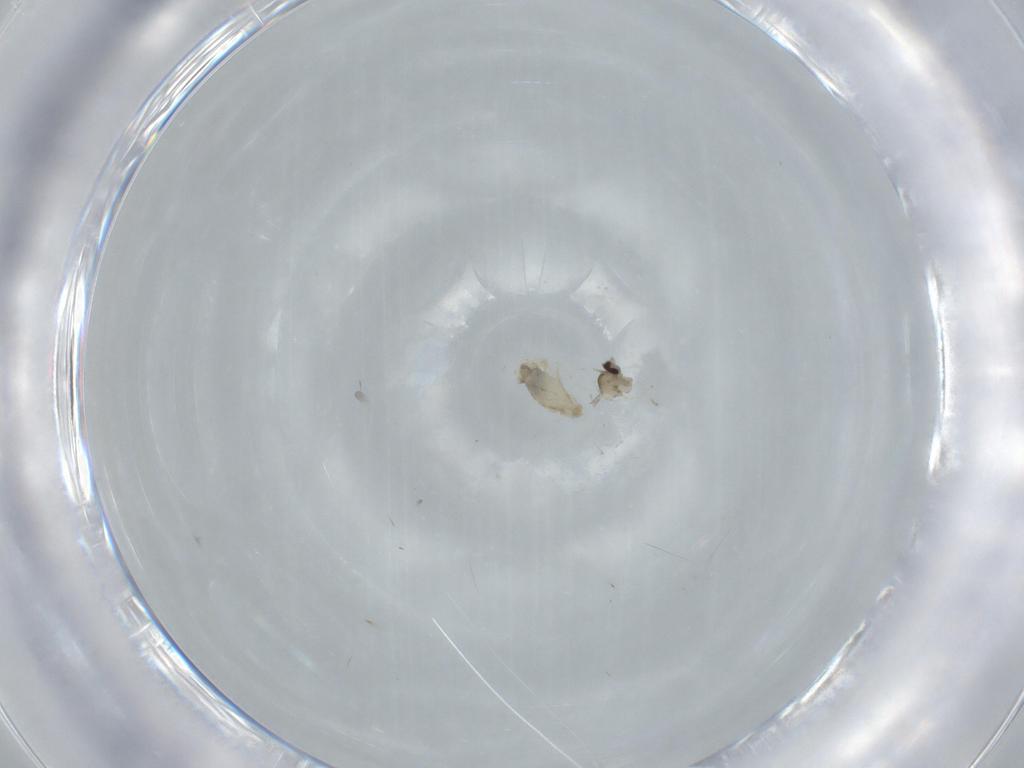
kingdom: Animalia
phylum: Arthropoda
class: Insecta
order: Diptera
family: Cecidomyiidae
